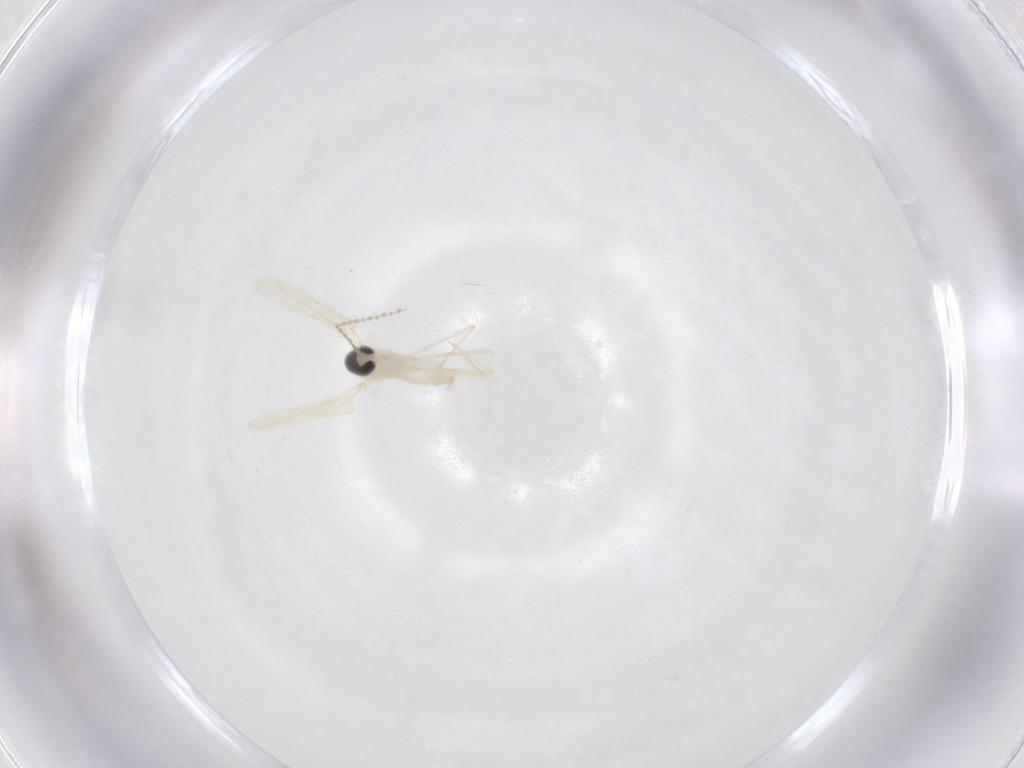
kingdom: Animalia
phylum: Arthropoda
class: Insecta
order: Diptera
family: Cecidomyiidae
